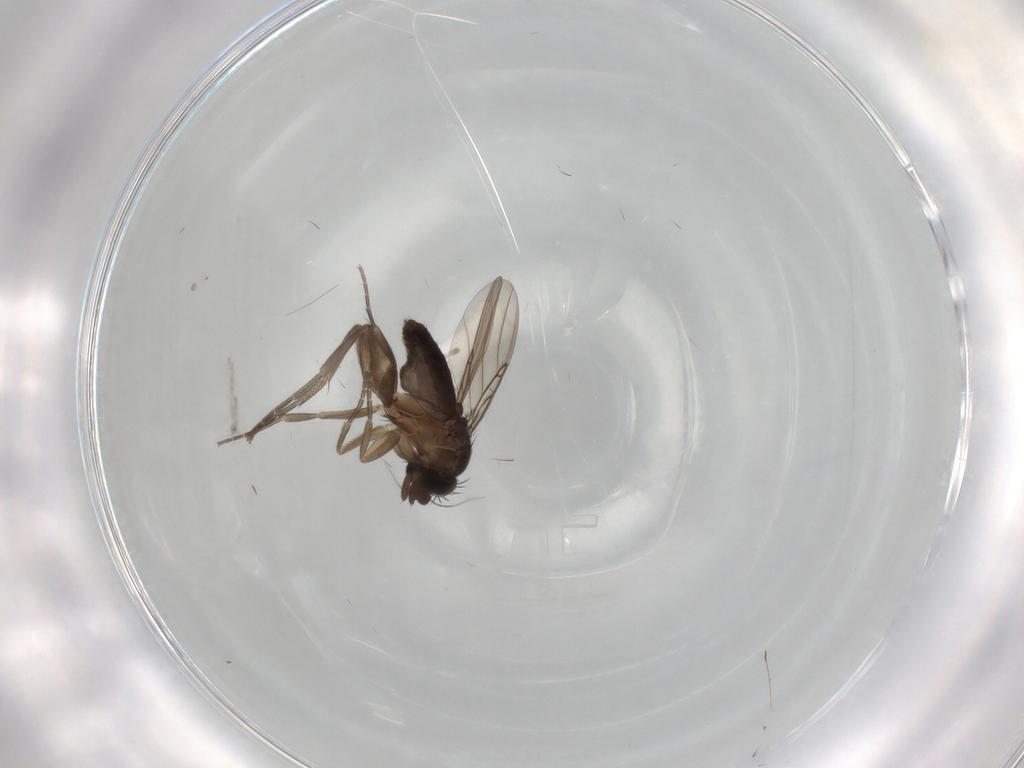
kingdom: Animalia
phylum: Arthropoda
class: Insecta
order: Diptera
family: Phoridae
